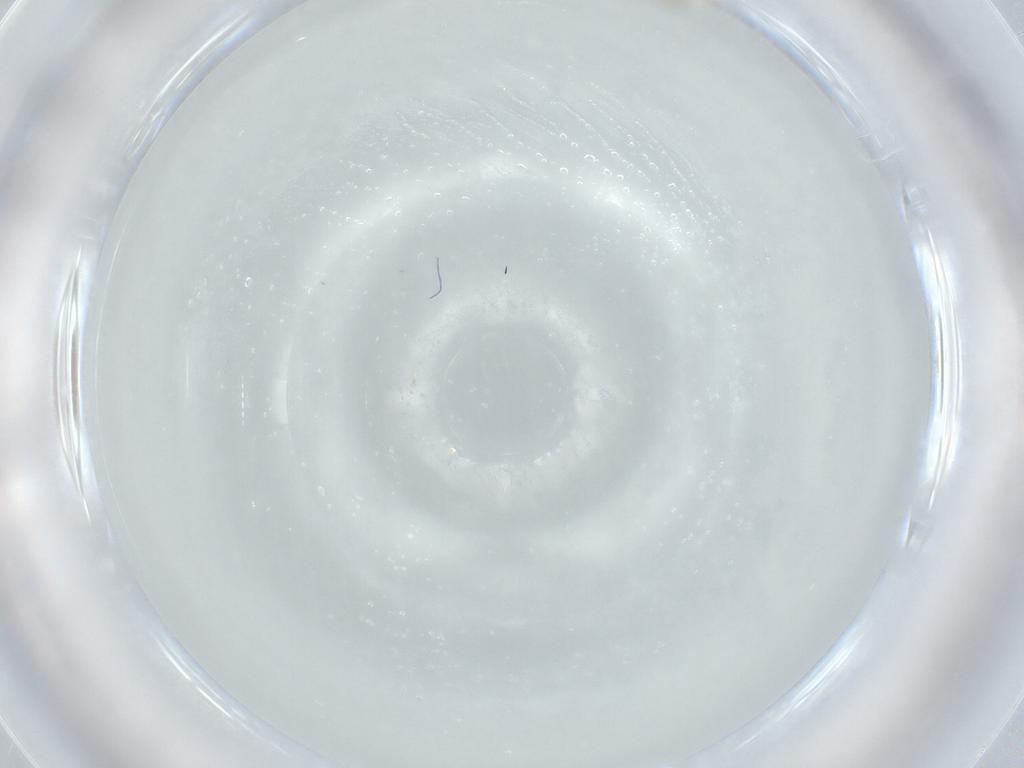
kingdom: Animalia
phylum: Arthropoda
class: Insecta
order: Diptera
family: Cecidomyiidae
